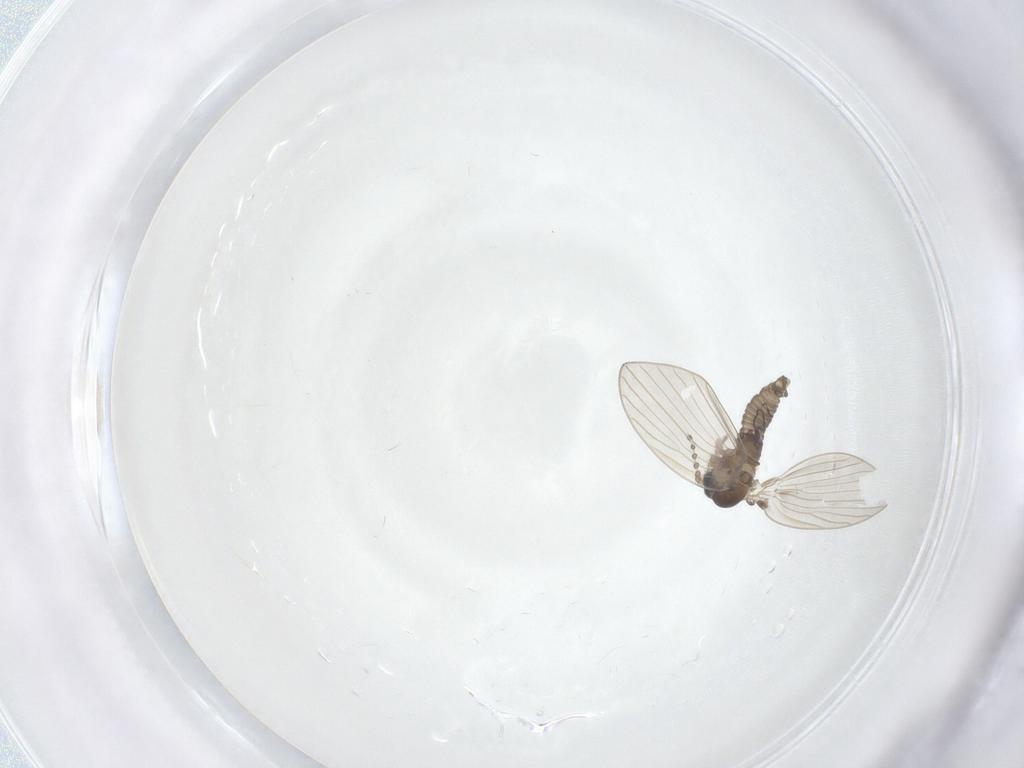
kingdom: Animalia
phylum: Arthropoda
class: Insecta
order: Diptera
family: Psychodidae
